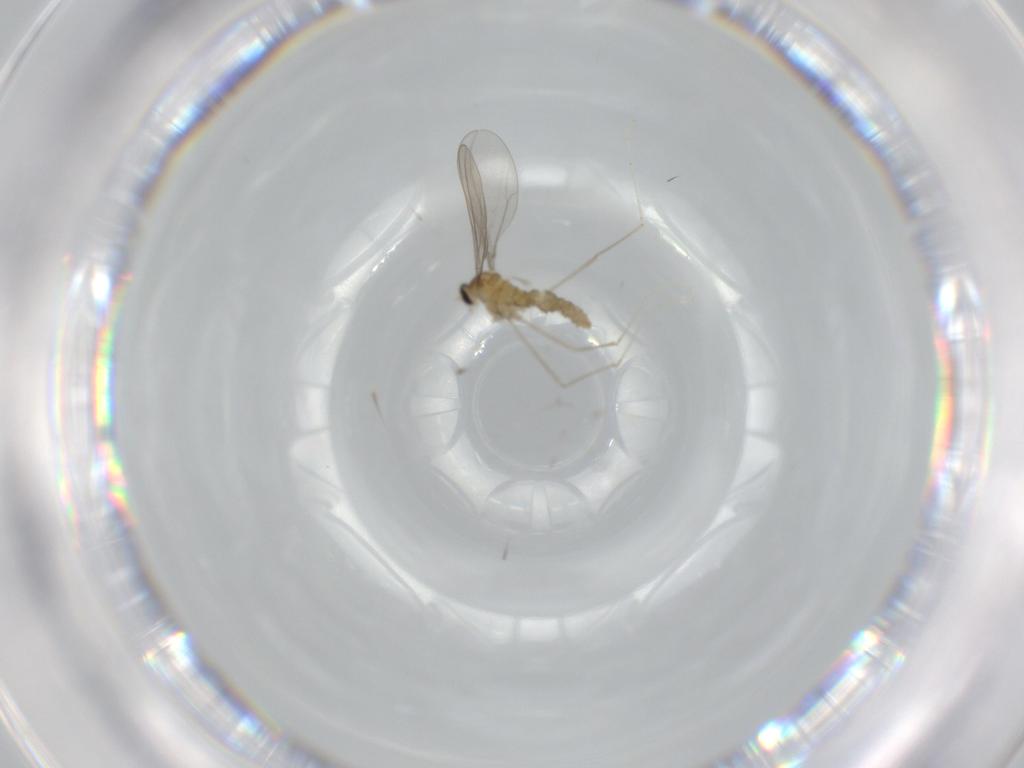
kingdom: Animalia
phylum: Arthropoda
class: Insecta
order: Diptera
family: Cecidomyiidae
